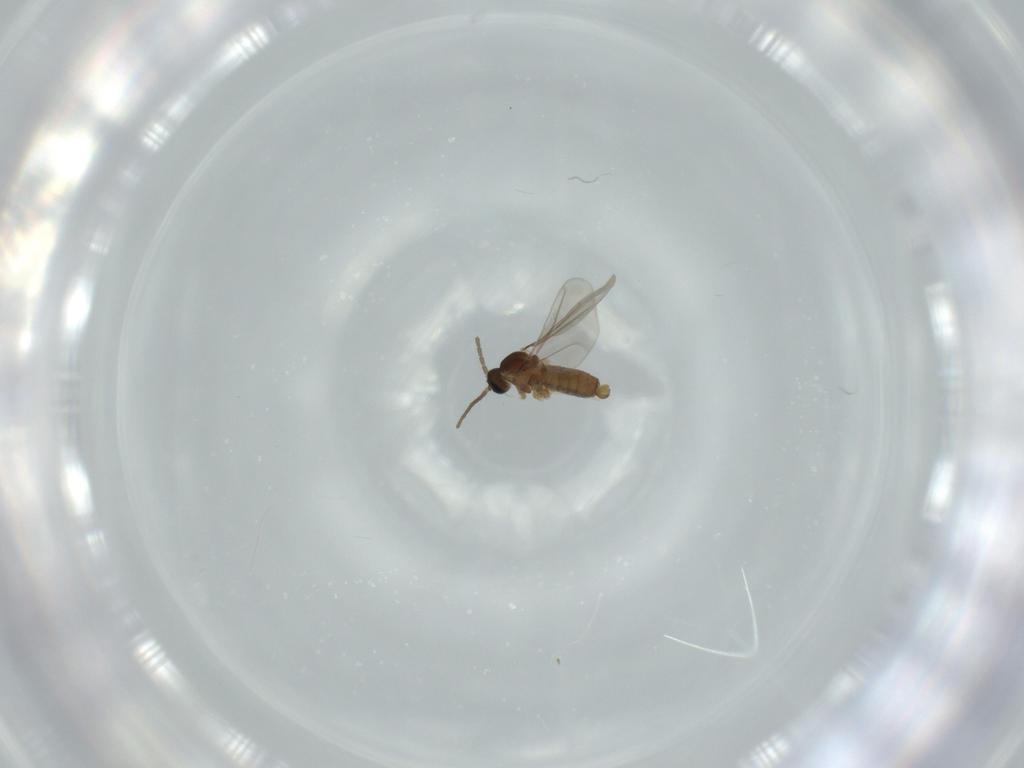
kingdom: Animalia
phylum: Arthropoda
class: Insecta
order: Diptera
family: Cecidomyiidae
